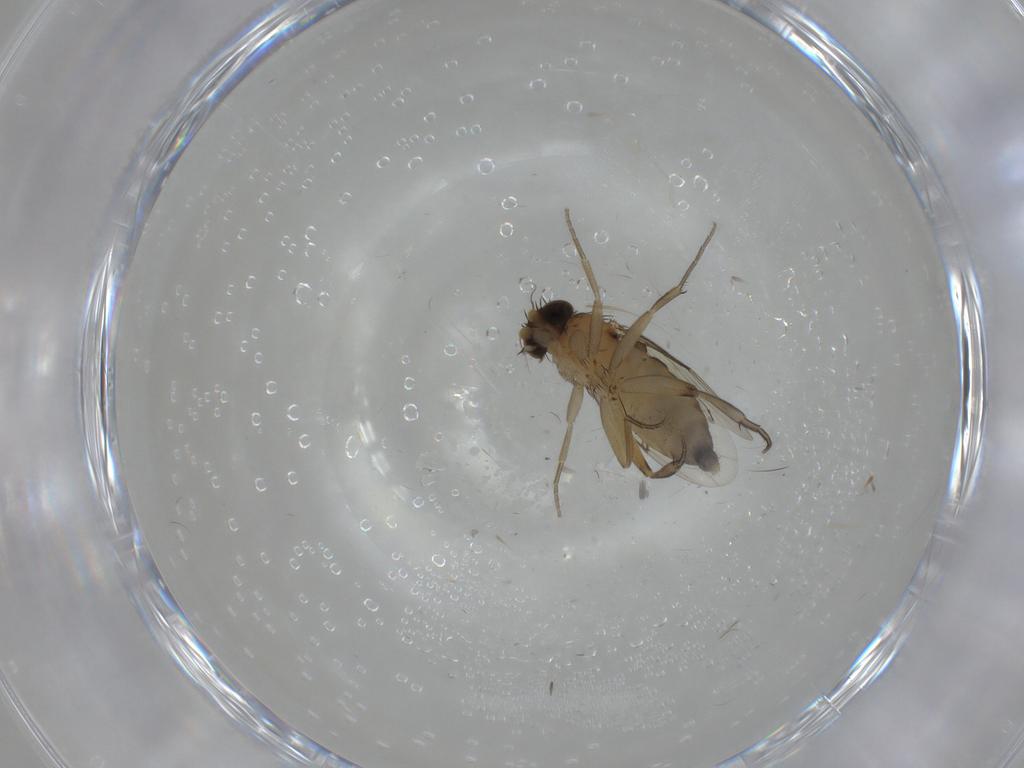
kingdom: Animalia
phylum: Arthropoda
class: Insecta
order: Diptera
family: Phoridae
